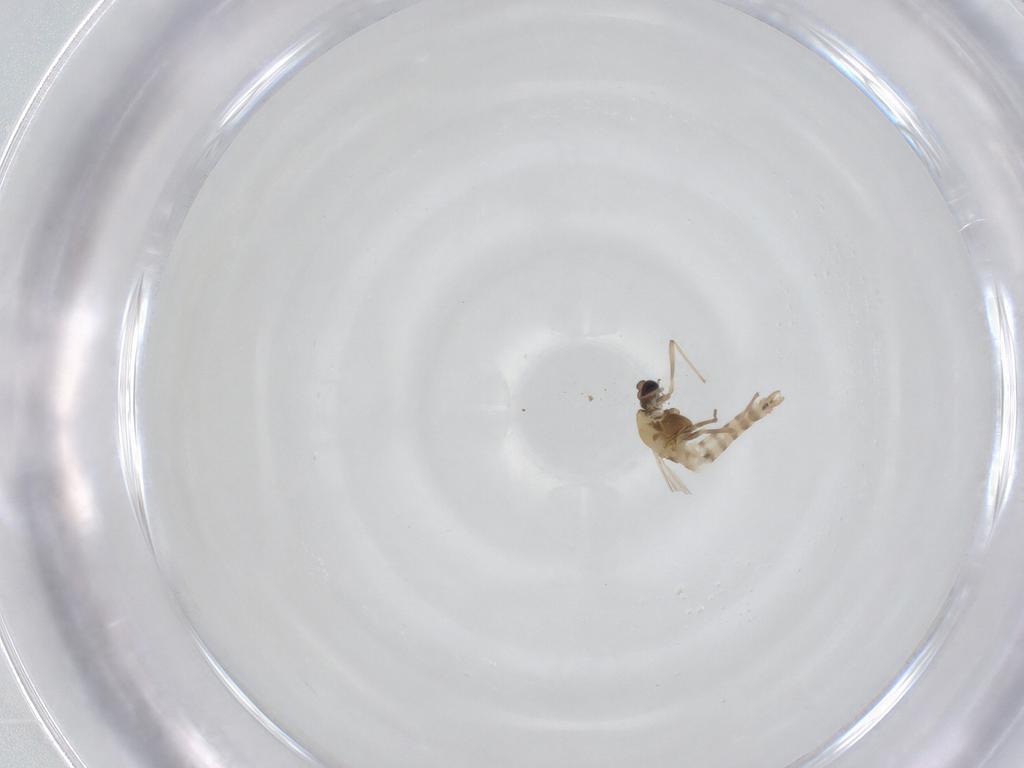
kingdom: Animalia
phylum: Arthropoda
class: Insecta
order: Diptera
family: Chironomidae
